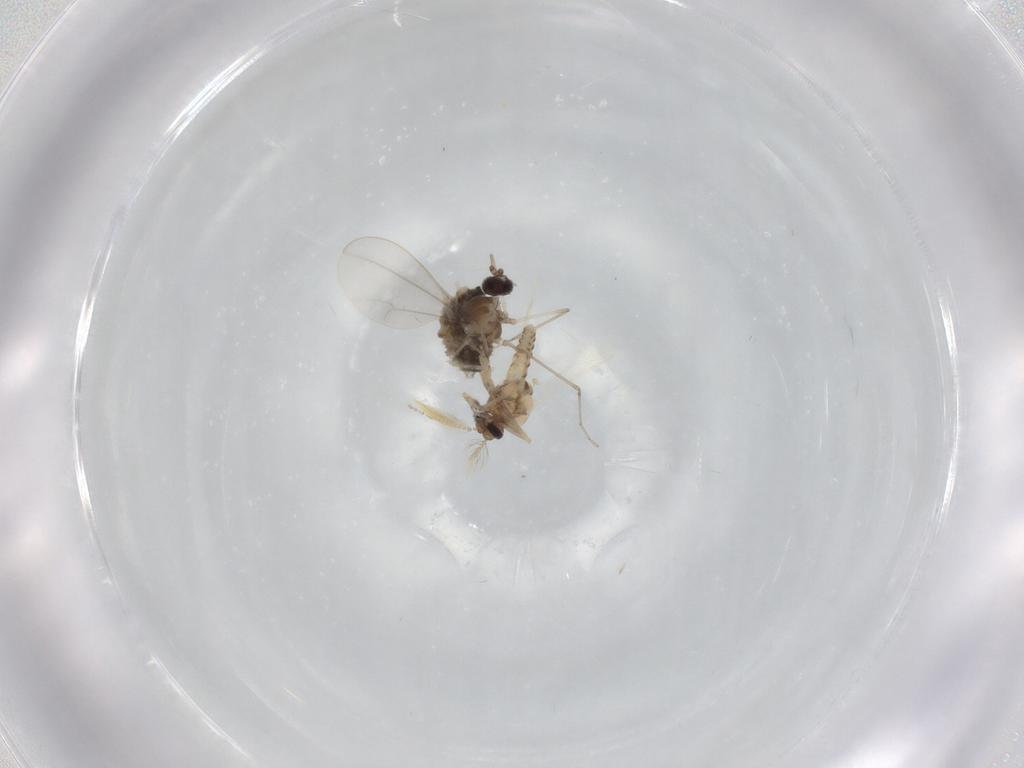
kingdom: Animalia
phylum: Arthropoda
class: Insecta
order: Diptera
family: Cecidomyiidae
